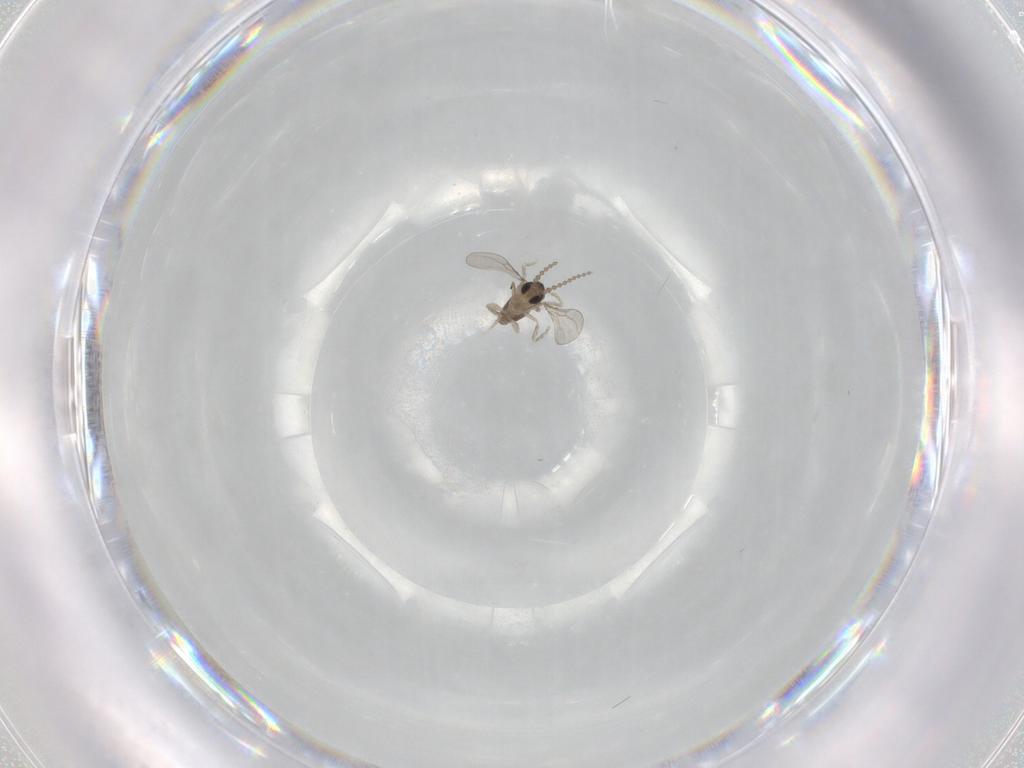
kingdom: Animalia
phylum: Arthropoda
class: Insecta
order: Diptera
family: Cecidomyiidae
